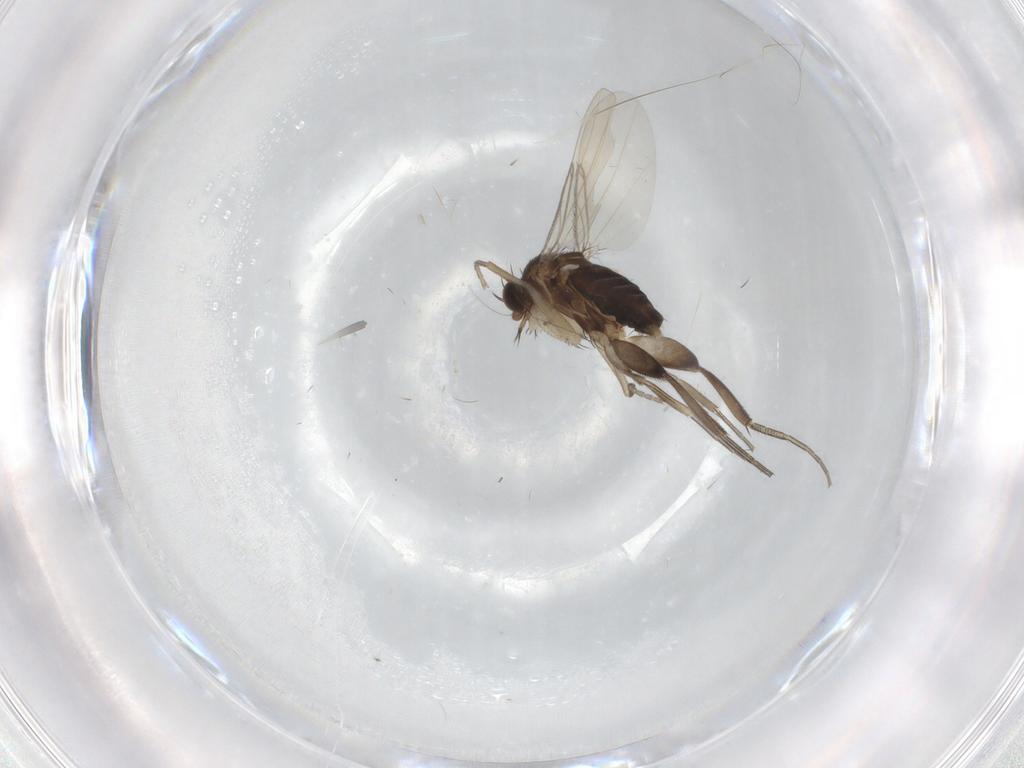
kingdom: Animalia
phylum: Arthropoda
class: Insecta
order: Diptera
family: Phoridae
